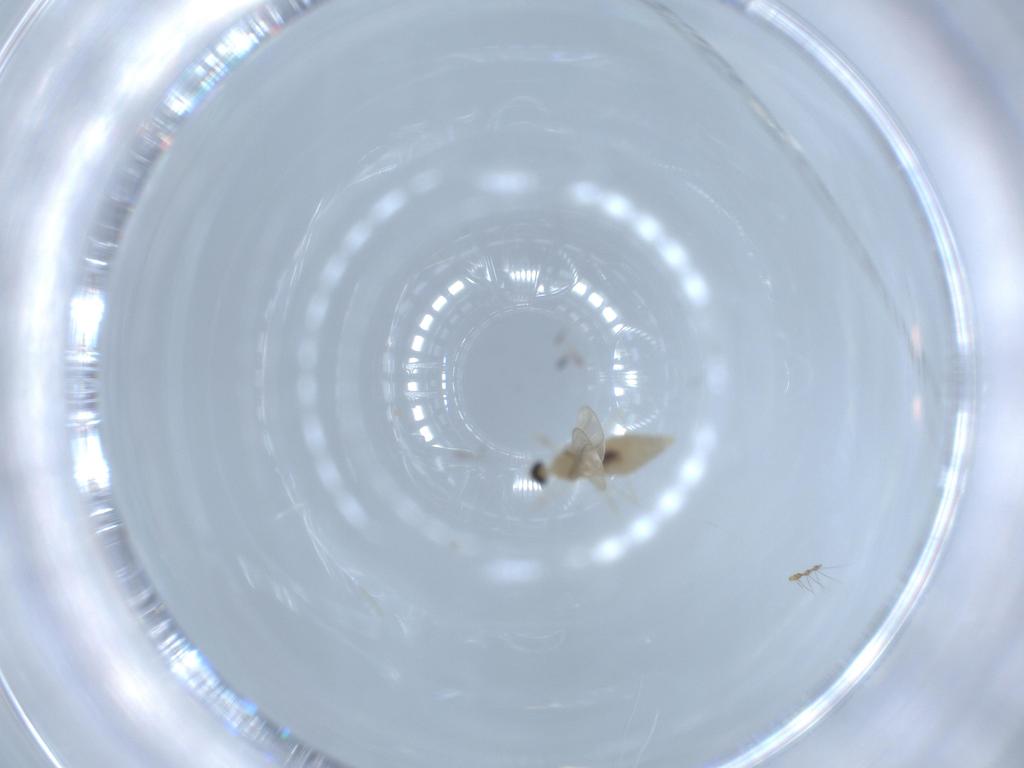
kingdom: Animalia
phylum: Arthropoda
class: Insecta
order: Diptera
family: Cecidomyiidae
